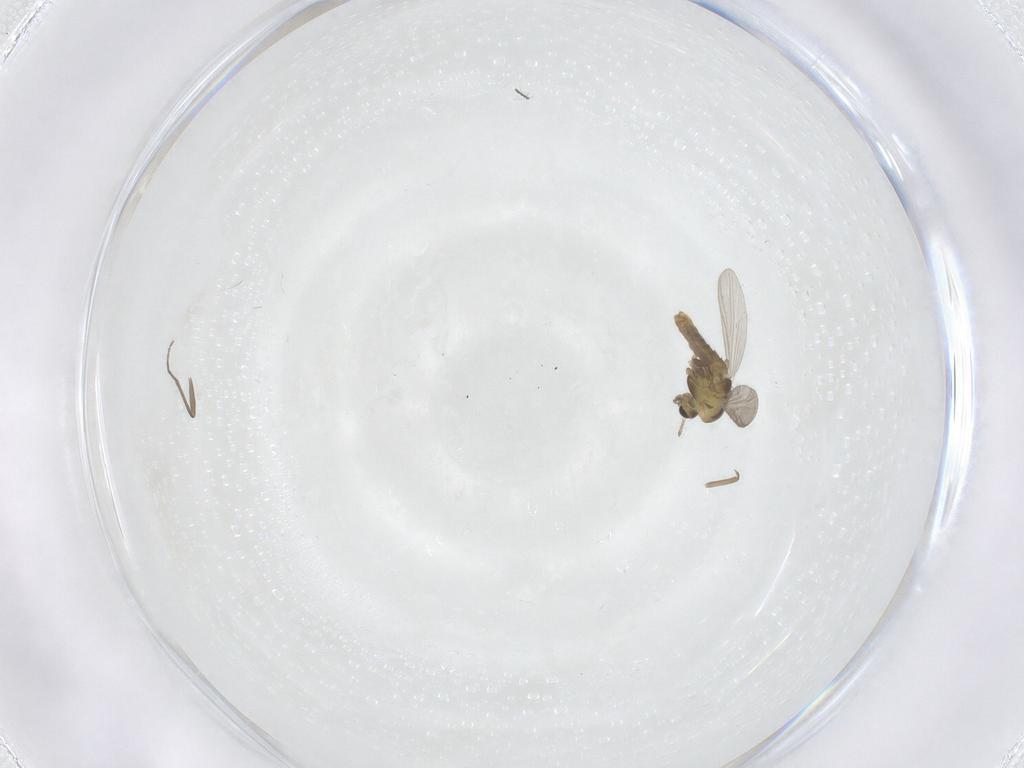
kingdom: Animalia
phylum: Arthropoda
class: Insecta
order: Diptera
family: Chironomidae
